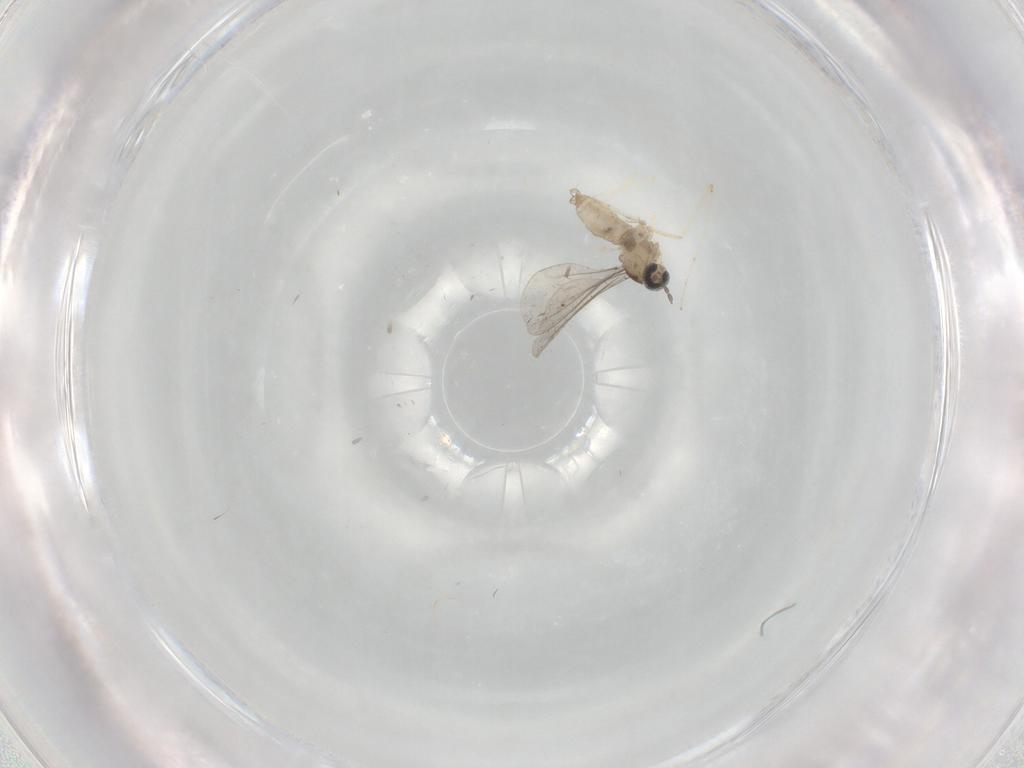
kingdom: Animalia
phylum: Arthropoda
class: Insecta
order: Diptera
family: Cecidomyiidae
